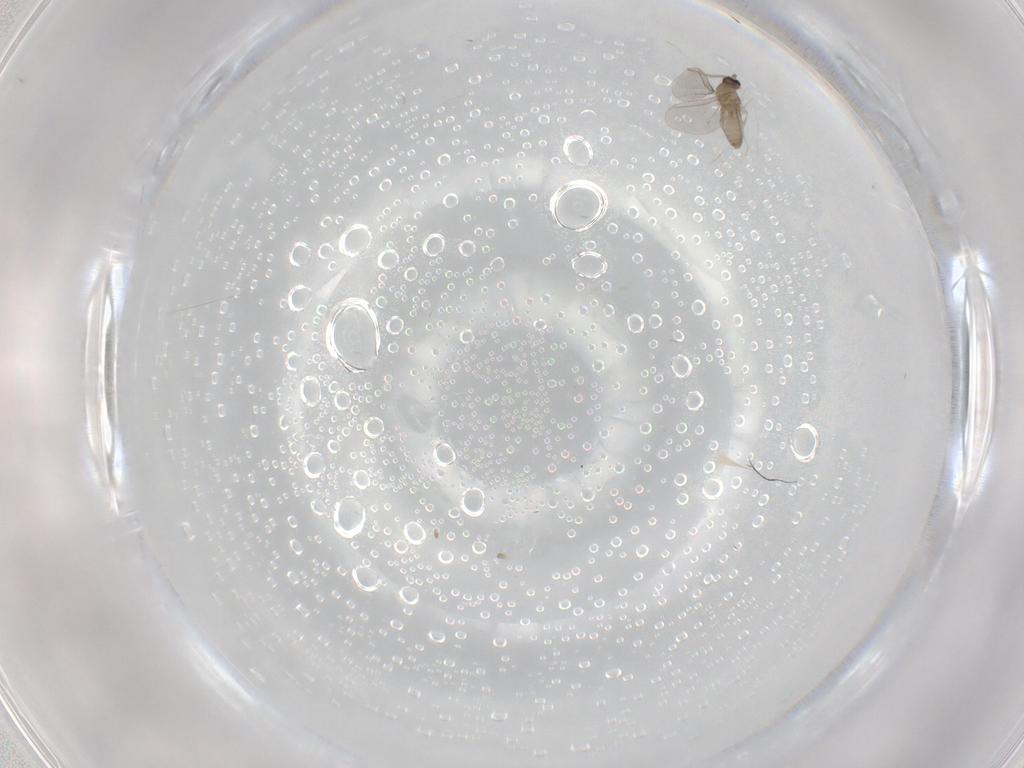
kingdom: Animalia
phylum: Arthropoda
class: Insecta
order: Diptera
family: Cecidomyiidae
